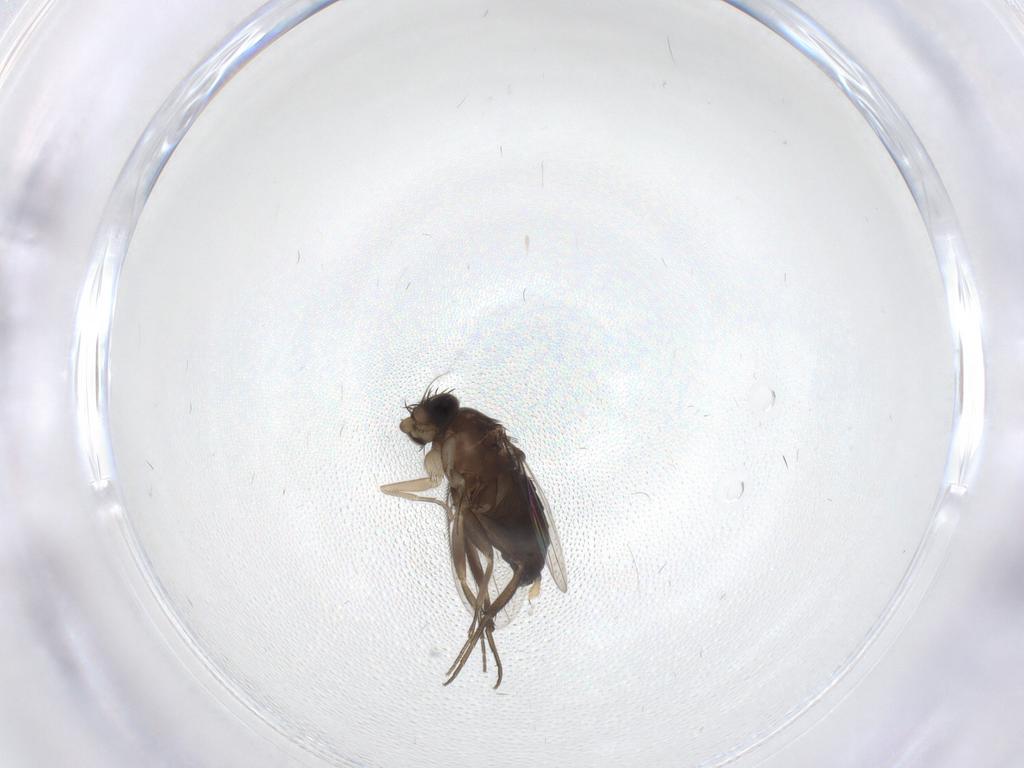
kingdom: Animalia
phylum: Arthropoda
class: Insecta
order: Diptera
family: Phoridae
